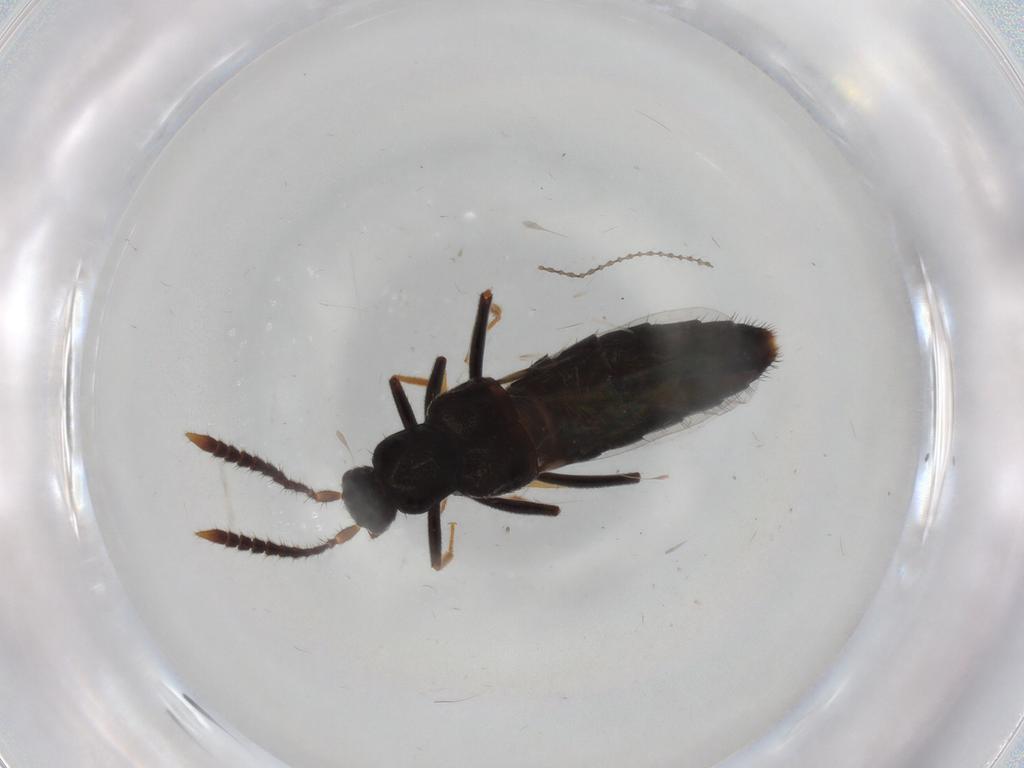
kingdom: Animalia
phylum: Arthropoda
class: Insecta
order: Coleoptera
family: Staphylinidae
